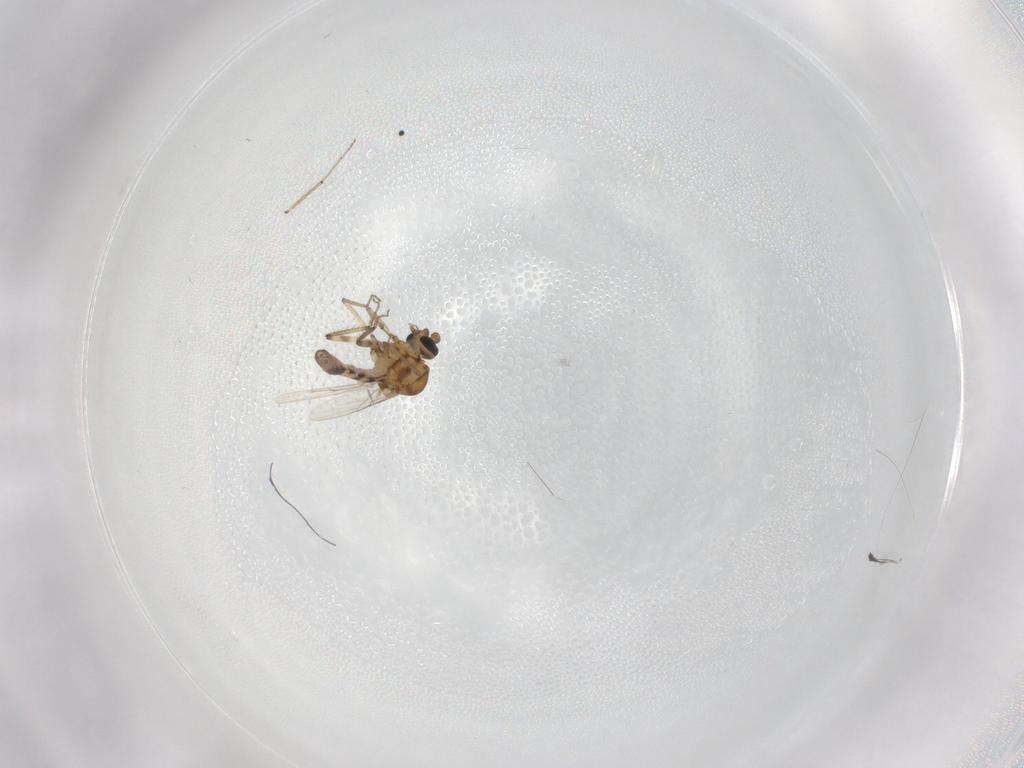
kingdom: Animalia
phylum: Arthropoda
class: Insecta
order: Diptera
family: Ceratopogonidae
